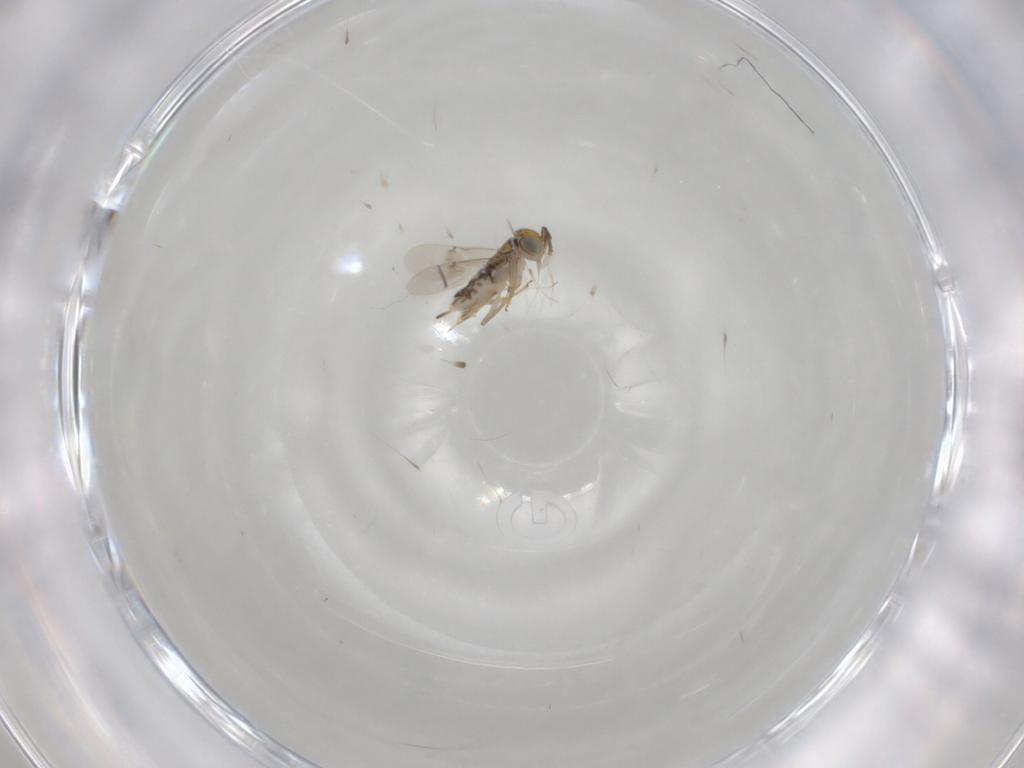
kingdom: Animalia
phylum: Arthropoda
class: Insecta
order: Hymenoptera
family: Encyrtidae
